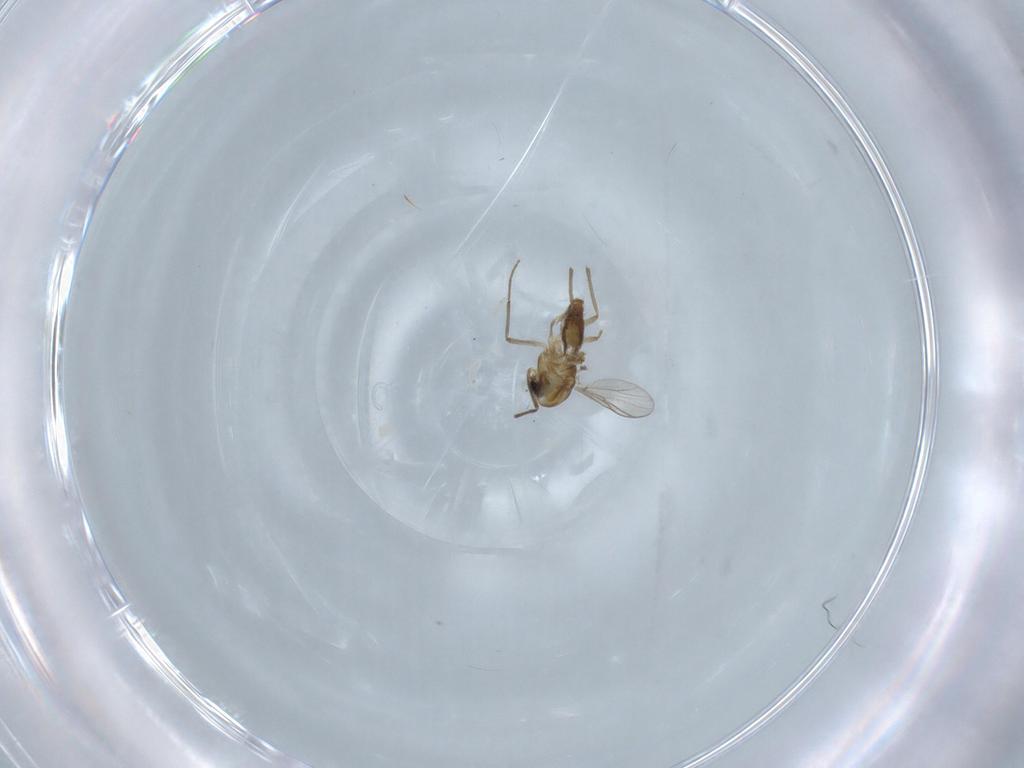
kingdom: Animalia
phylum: Arthropoda
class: Insecta
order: Diptera
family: Chironomidae
